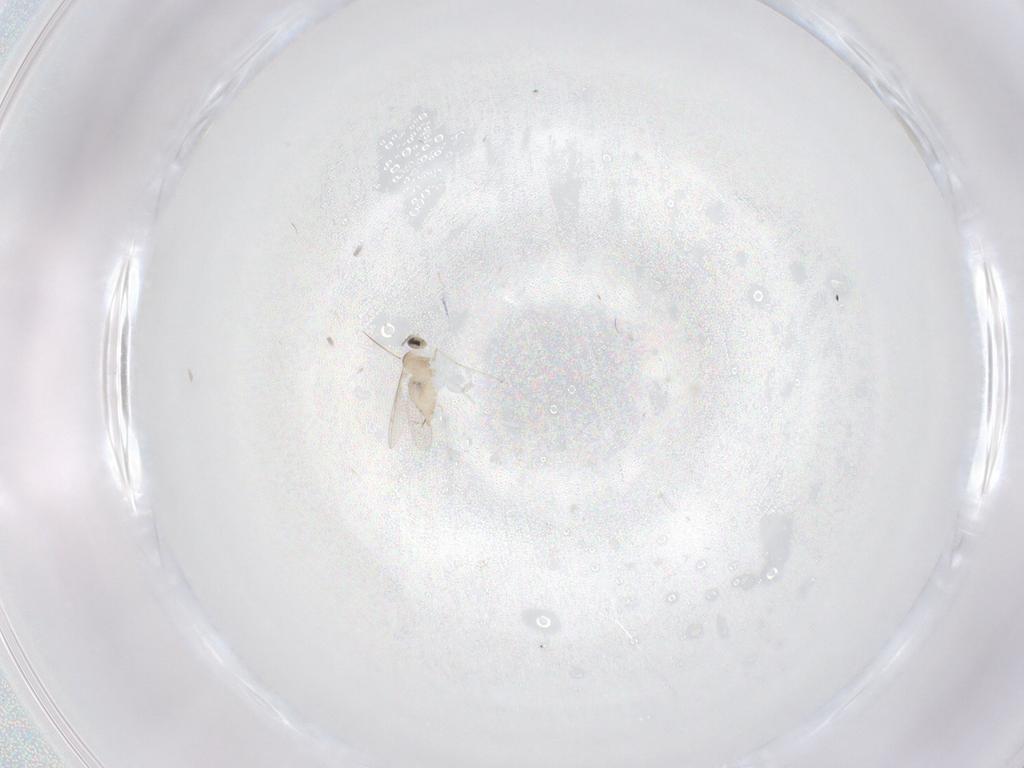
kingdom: Animalia
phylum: Arthropoda
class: Insecta
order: Diptera
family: Cecidomyiidae
